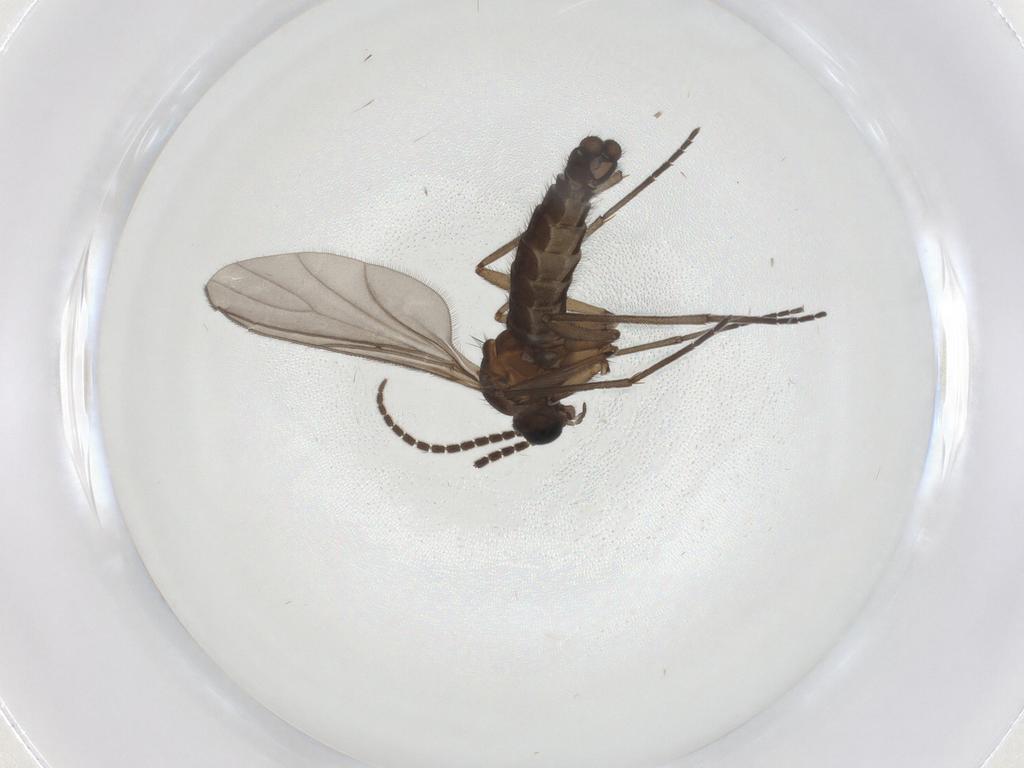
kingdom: Animalia
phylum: Arthropoda
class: Insecta
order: Diptera
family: Sciaridae
